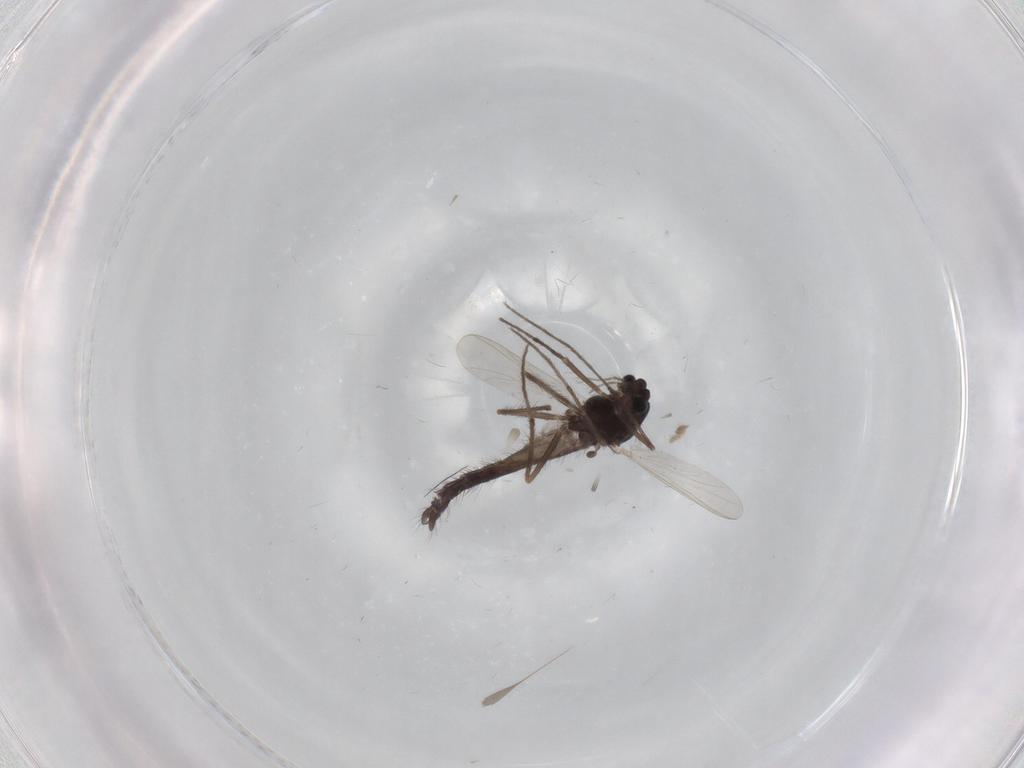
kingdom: Animalia
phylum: Arthropoda
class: Insecta
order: Diptera
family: Chironomidae
